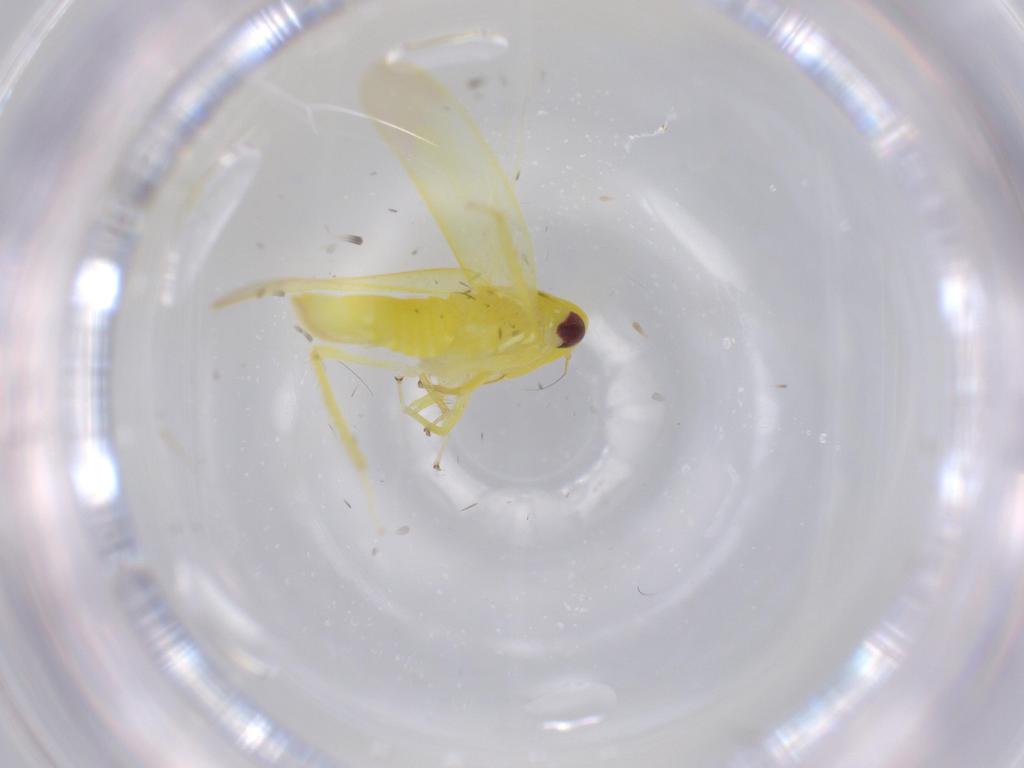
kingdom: Animalia
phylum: Arthropoda
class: Insecta
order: Hemiptera
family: Cicadellidae
